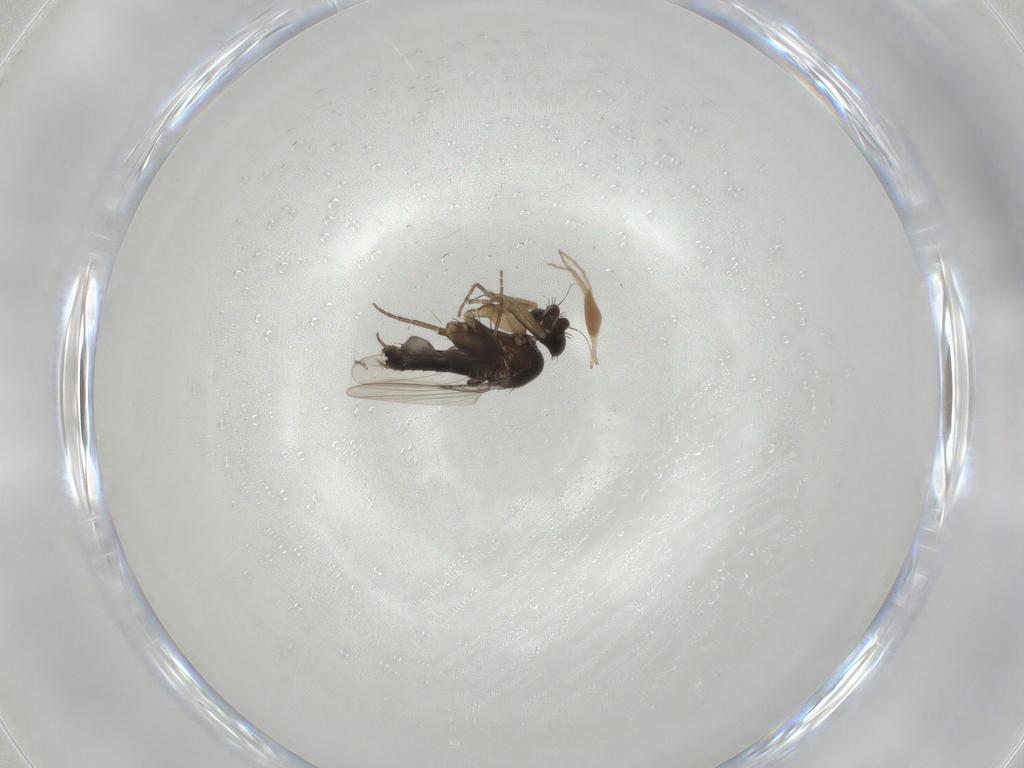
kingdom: Animalia
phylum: Arthropoda
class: Insecta
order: Diptera
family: Phoridae
